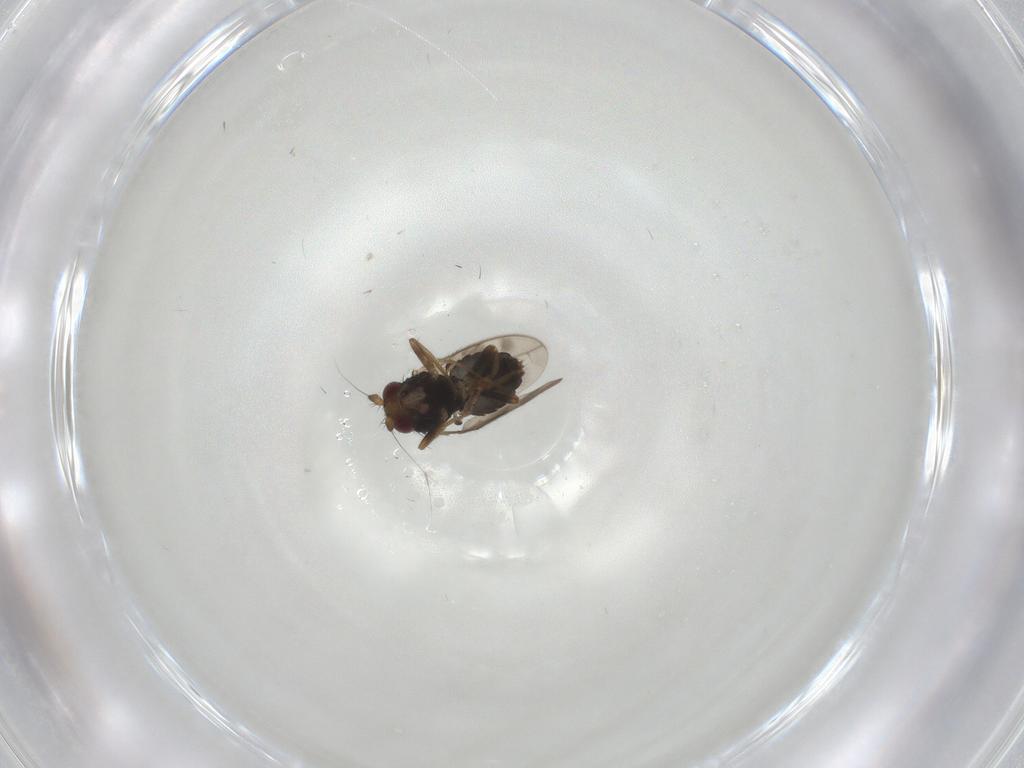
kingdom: Animalia
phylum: Arthropoda
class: Insecta
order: Diptera
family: Sphaeroceridae
